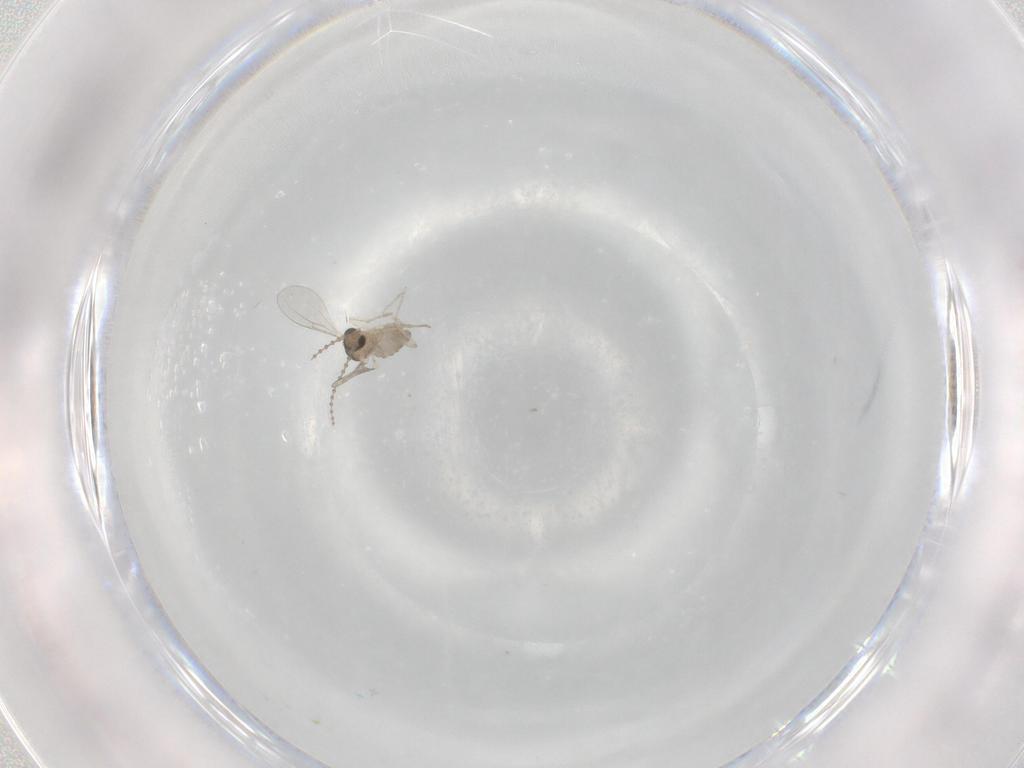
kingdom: Animalia
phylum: Arthropoda
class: Insecta
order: Diptera
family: Cecidomyiidae
